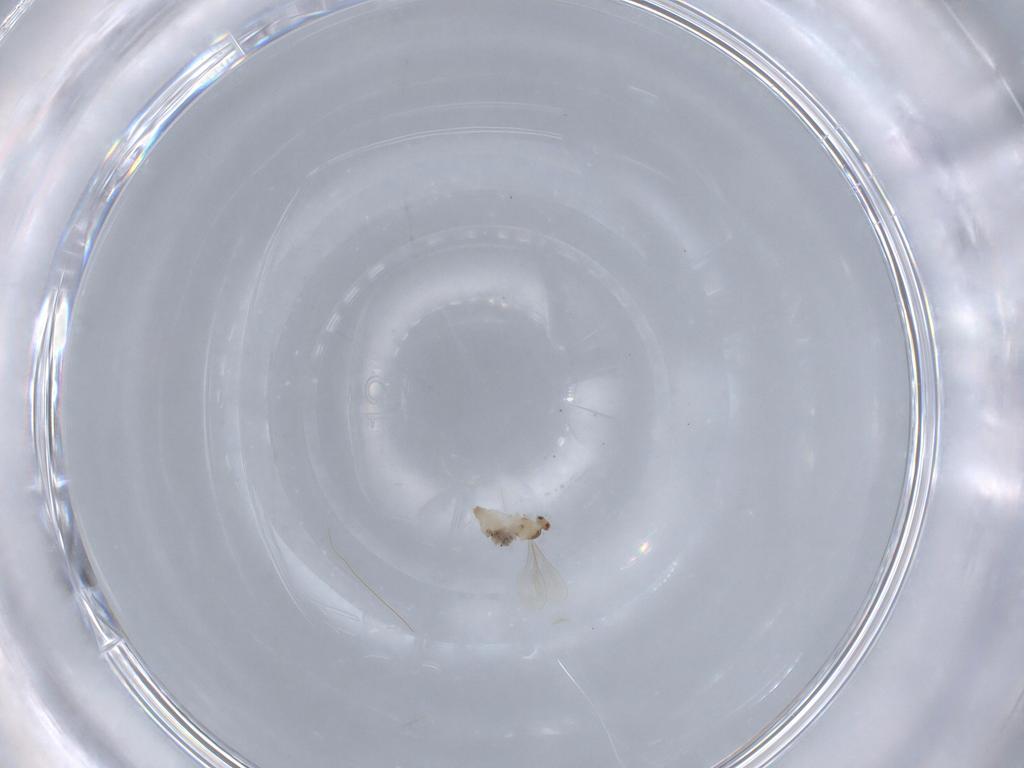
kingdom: Animalia
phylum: Arthropoda
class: Insecta
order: Diptera
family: Cecidomyiidae
